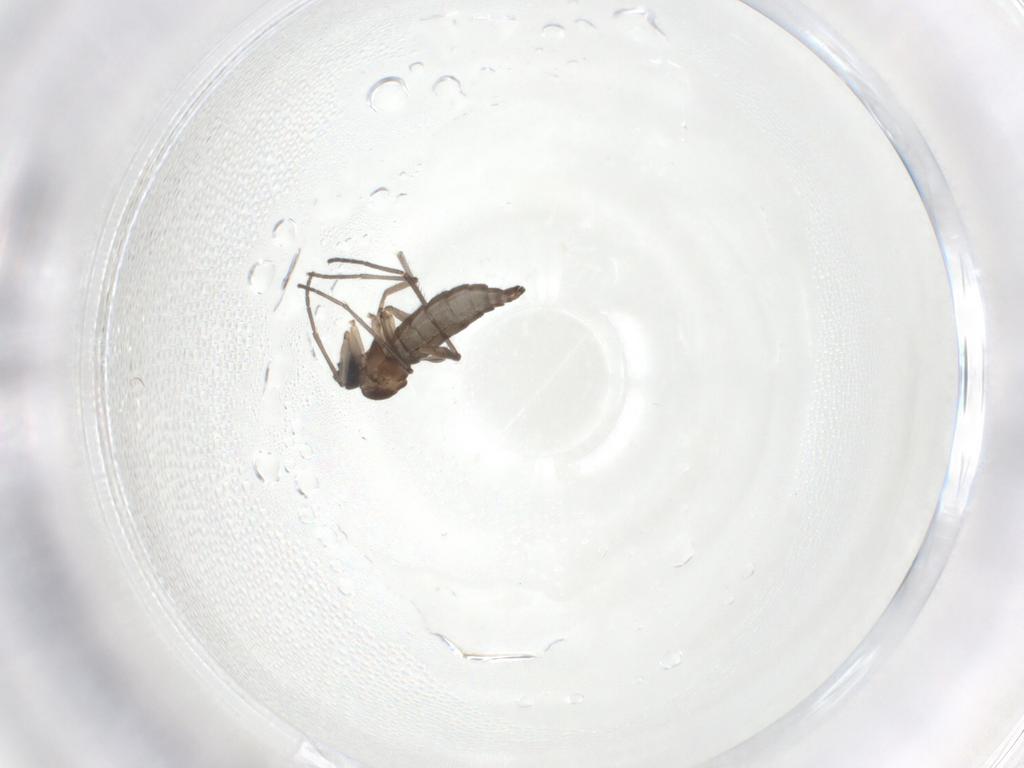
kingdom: Animalia
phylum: Arthropoda
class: Insecta
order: Diptera
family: Sciaridae
